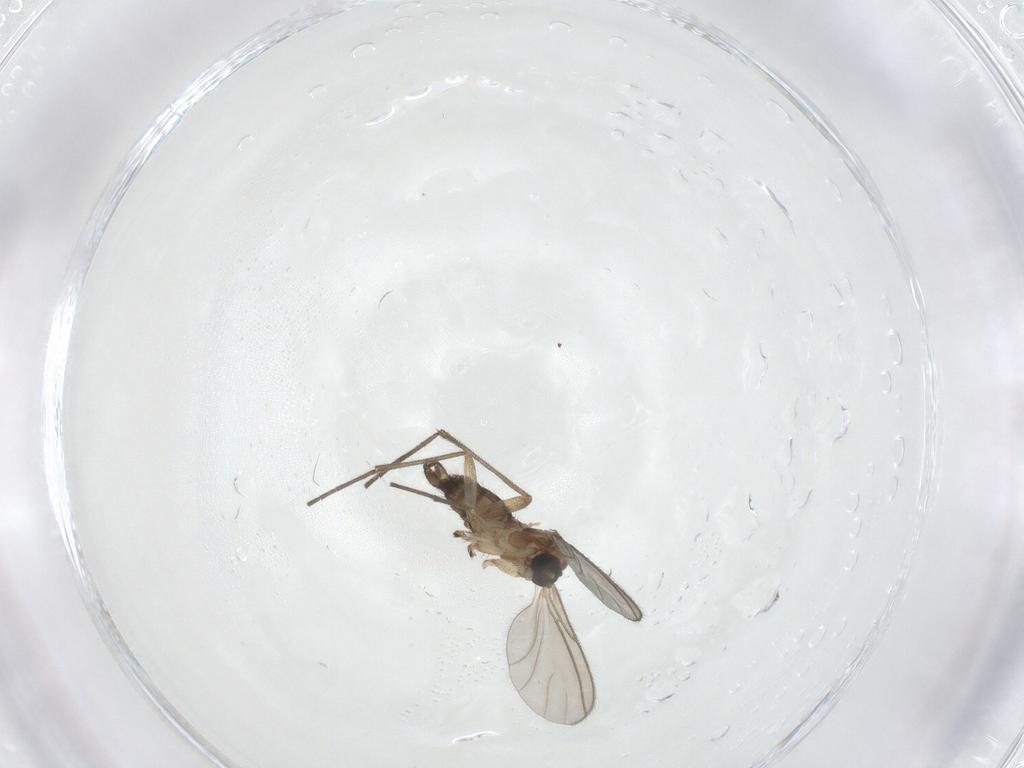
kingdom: Animalia
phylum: Arthropoda
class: Insecta
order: Diptera
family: Sciaridae
